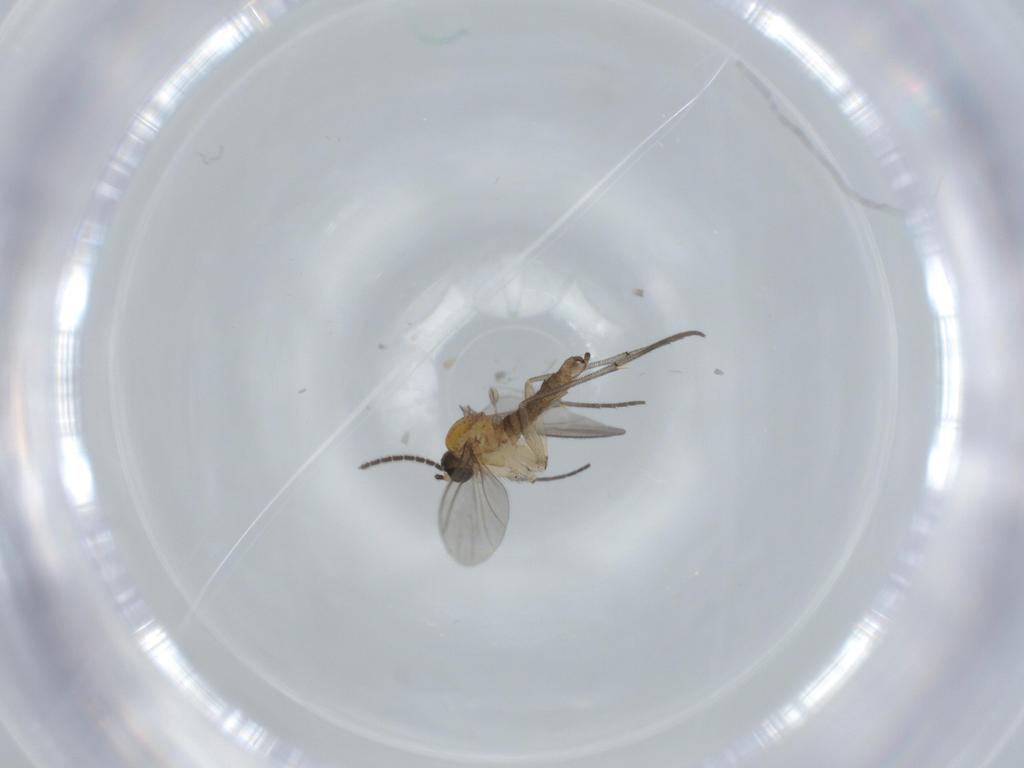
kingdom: Animalia
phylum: Arthropoda
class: Insecta
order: Diptera
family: Sciaridae
